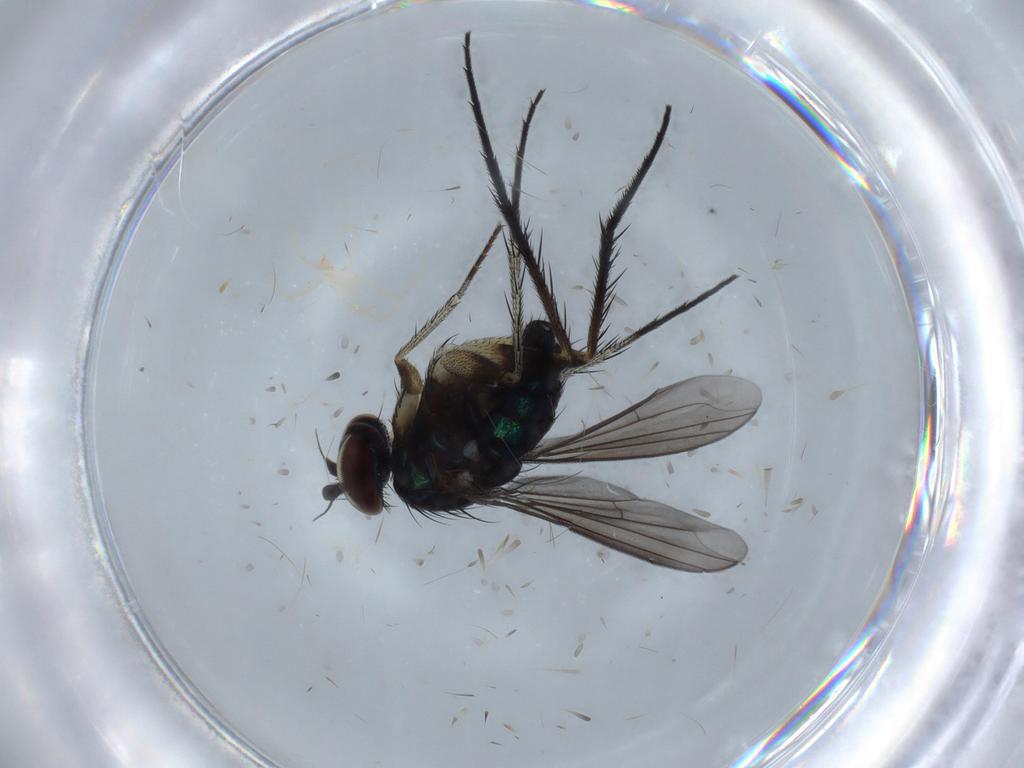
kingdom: Animalia
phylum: Arthropoda
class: Insecta
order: Diptera
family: Dolichopodidae
